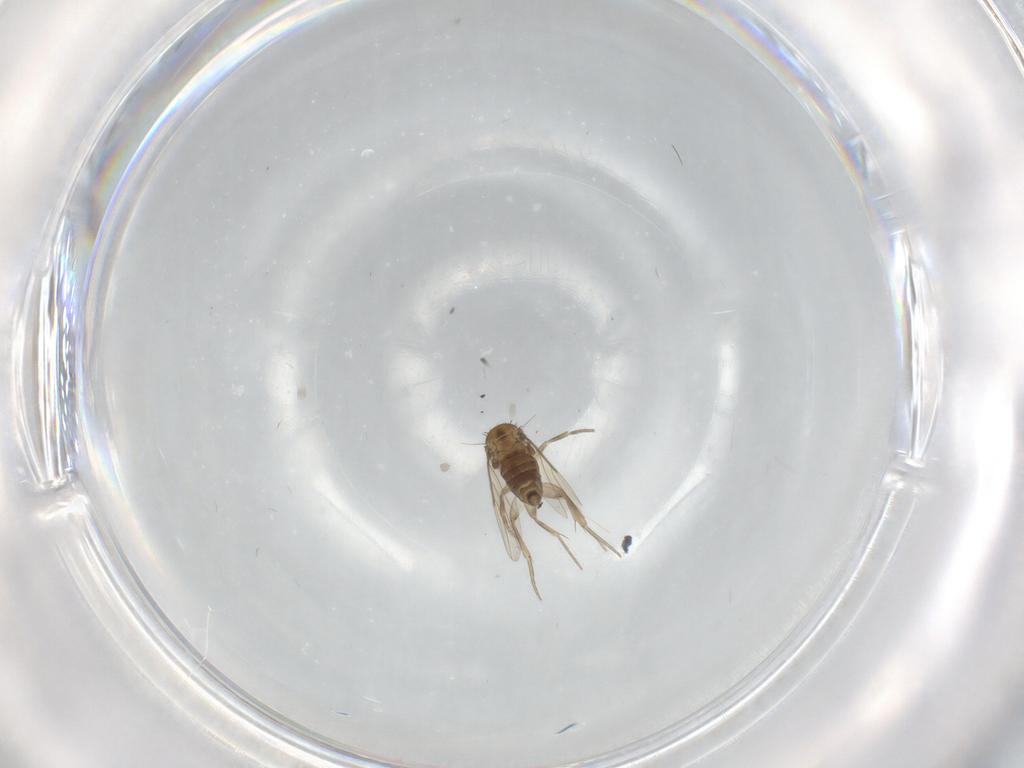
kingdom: Animalia
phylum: Arthropoda
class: Insecta
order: Diptera
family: Phoridae
